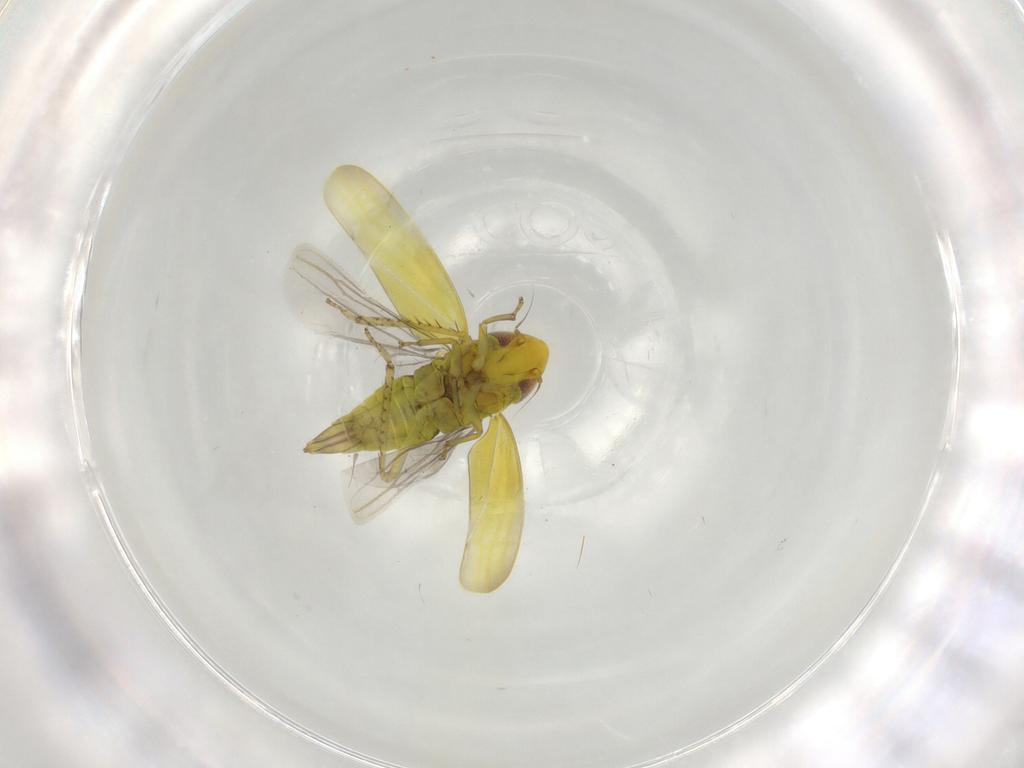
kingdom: Animalia
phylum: Arthropoda
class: Insecta
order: Hemiptera
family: Cicadellidae
